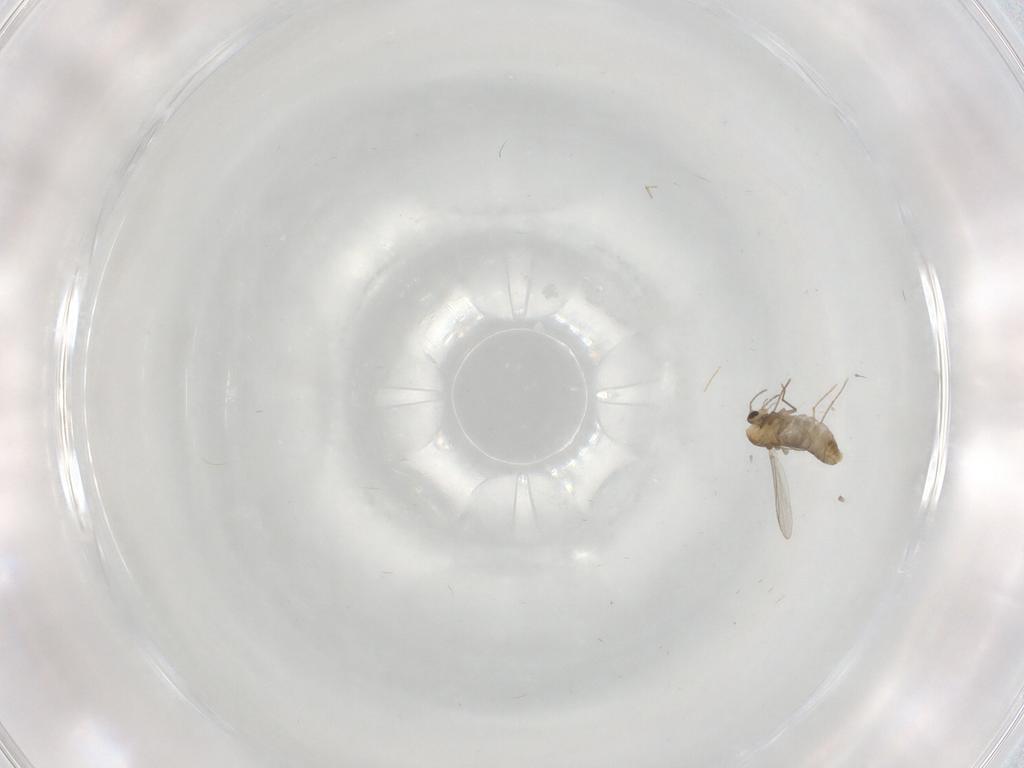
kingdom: Animalia
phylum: Arthropoda
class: Insecta
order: Diptera
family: Chironomidae
